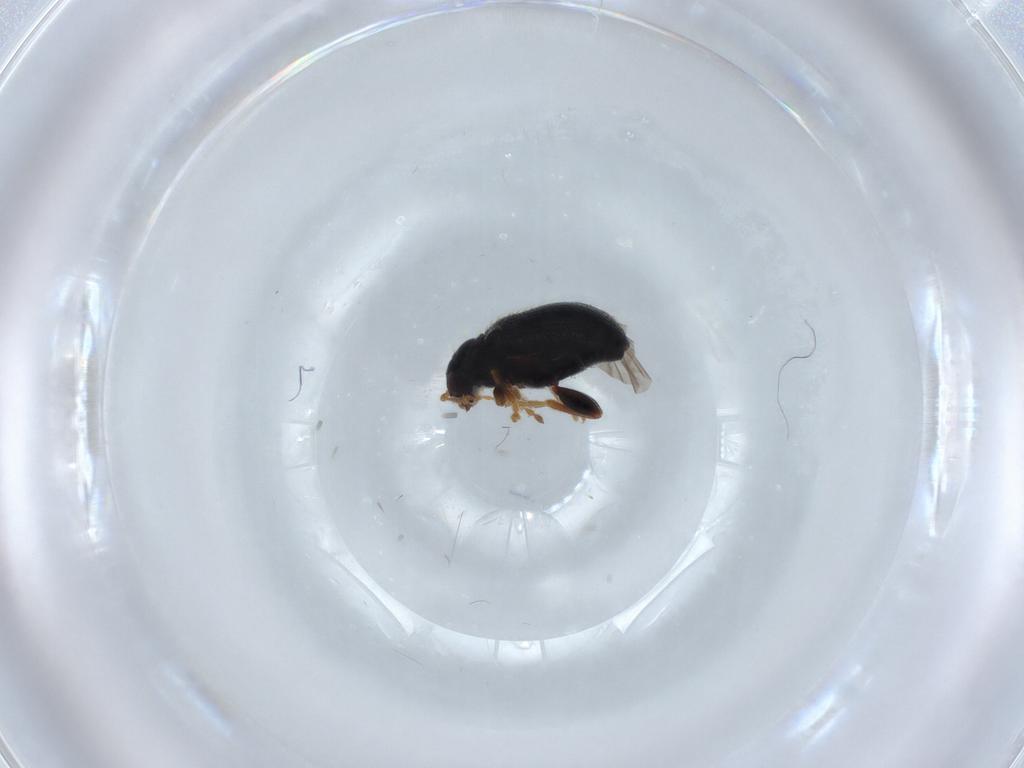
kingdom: Animalia
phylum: Arthropoda
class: Insecta
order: Coleoptera
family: Chrysomelidae
